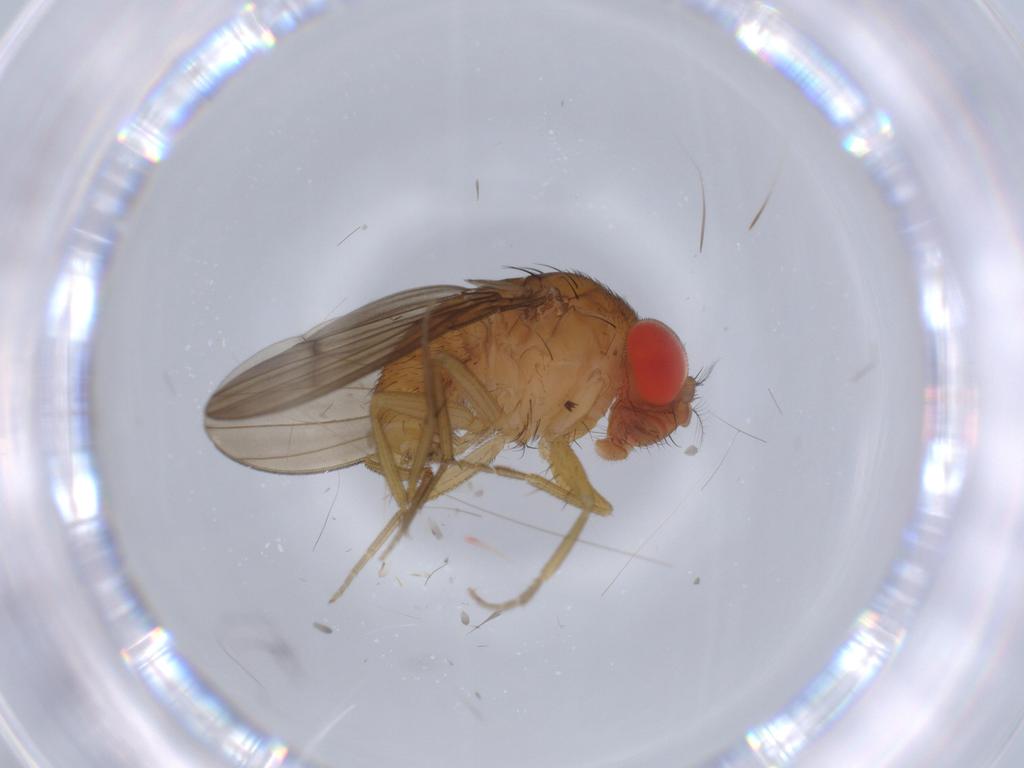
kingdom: Animalia
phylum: Arthropoda
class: Insecta
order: Diptera
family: Drosophilidae
